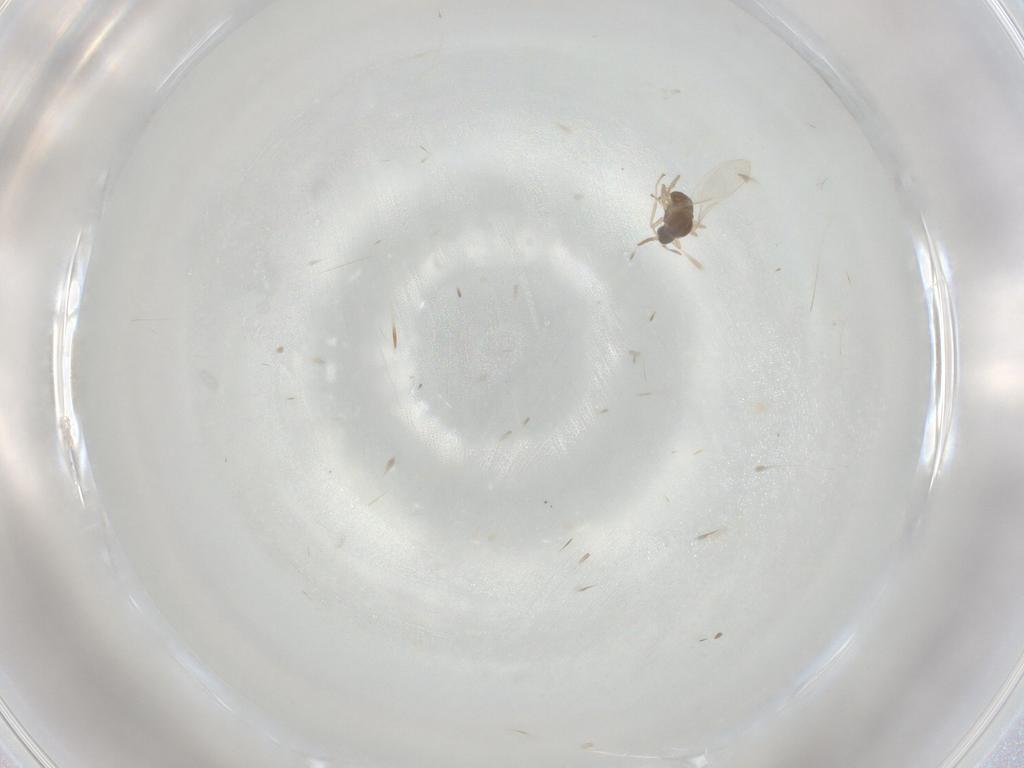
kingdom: Animalia
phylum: Arthropoda
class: Insecta
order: Diptera
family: Cecidomyiidae
